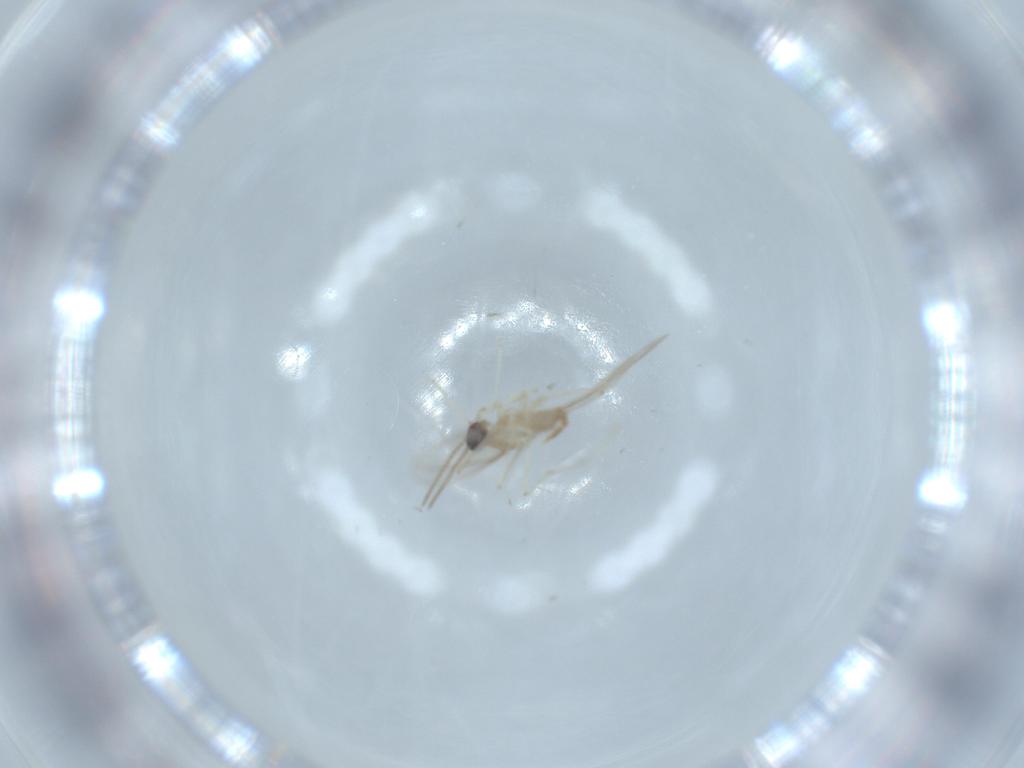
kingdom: Animalia
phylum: Arthropoda
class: Insecta
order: Diptera
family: Cecidomyiidae
